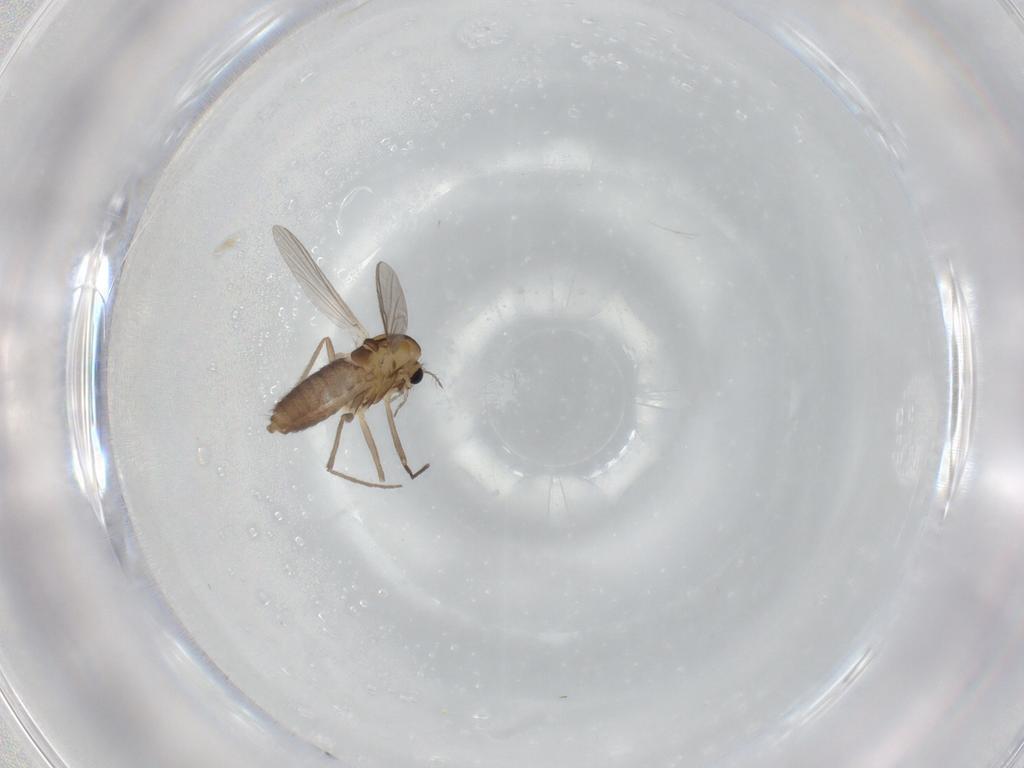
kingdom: Animalia
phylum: Arthropoda
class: Insecta
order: Diptera
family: Chironomidae
